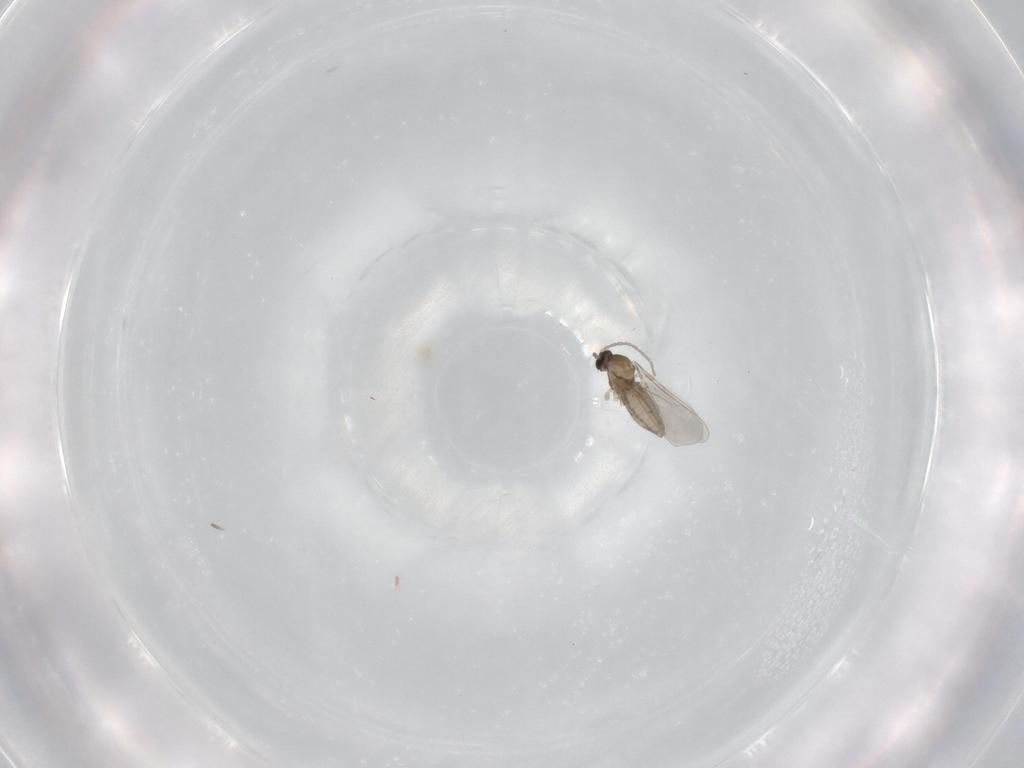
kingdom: Animalia
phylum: Arthropoda
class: Insecta
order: Diptera
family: Cecidomyiidae
